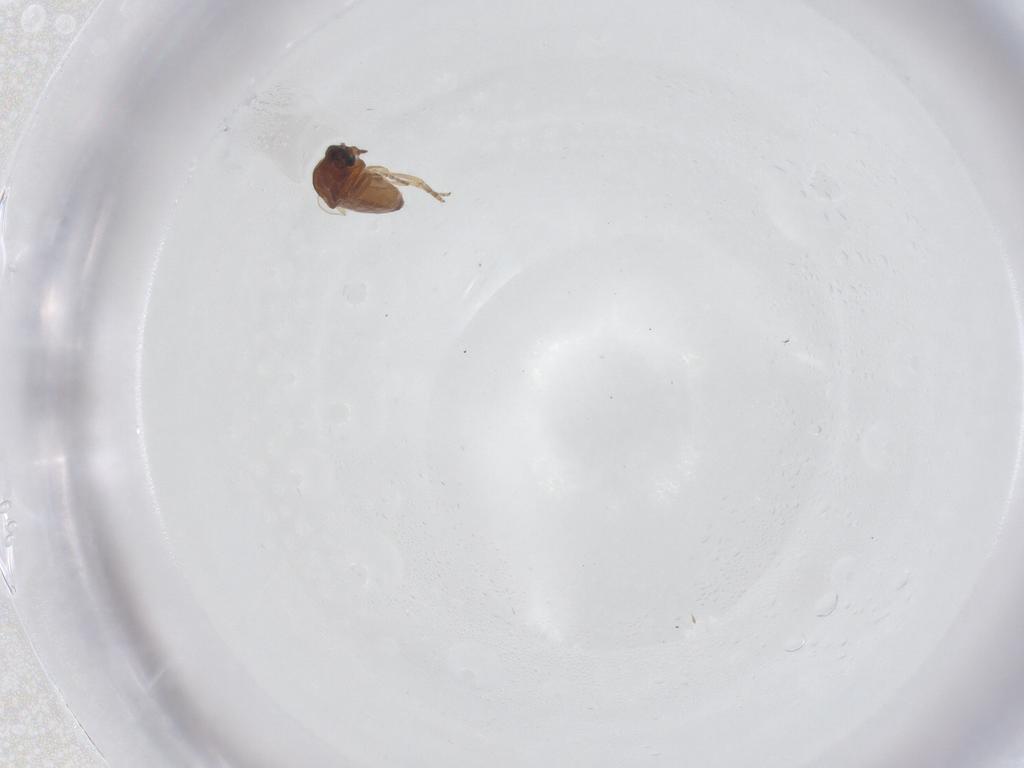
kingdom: Animalia
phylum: Arthropoda
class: Insecta
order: Diptera
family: Ceratopogonidae
